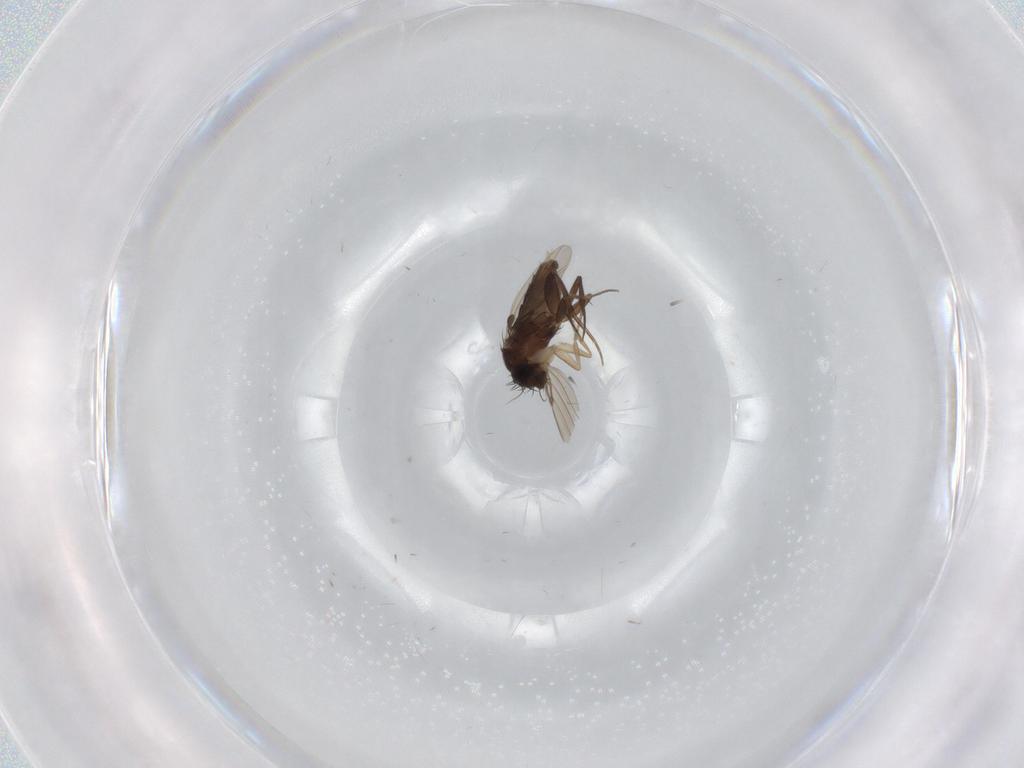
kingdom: Animalia
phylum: Arthropoda
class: Insecta
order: Diptera
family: Phoridae
